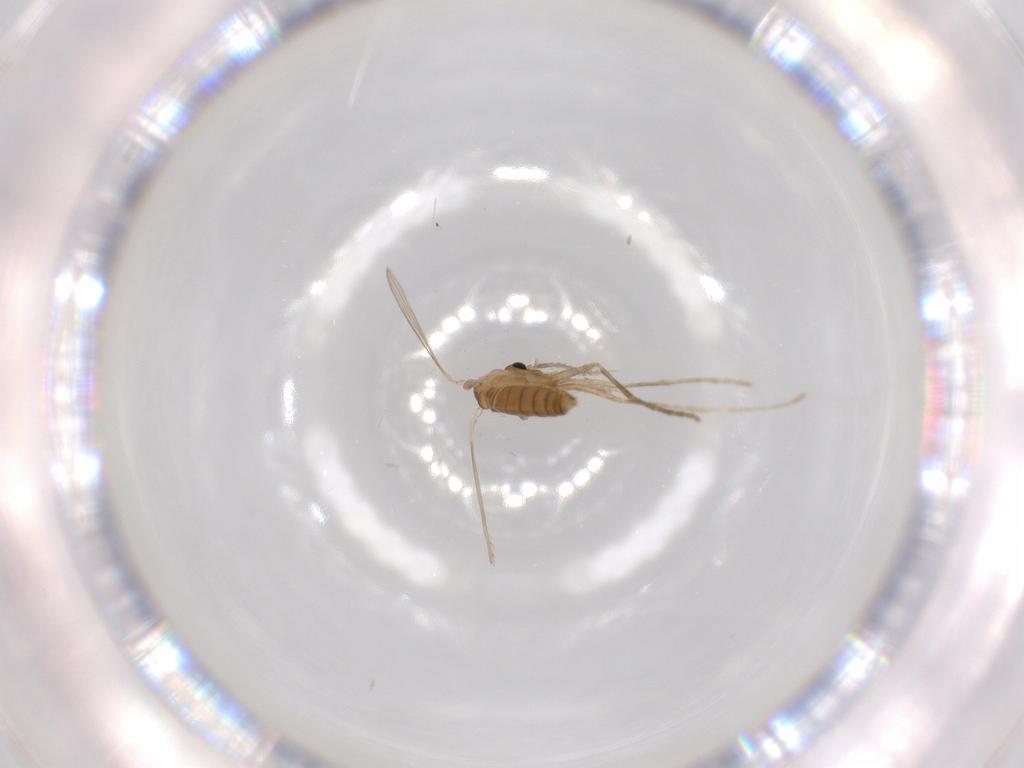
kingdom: Animalia
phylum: Arthropoda
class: Insecta
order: Diptera
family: Psychodidae
